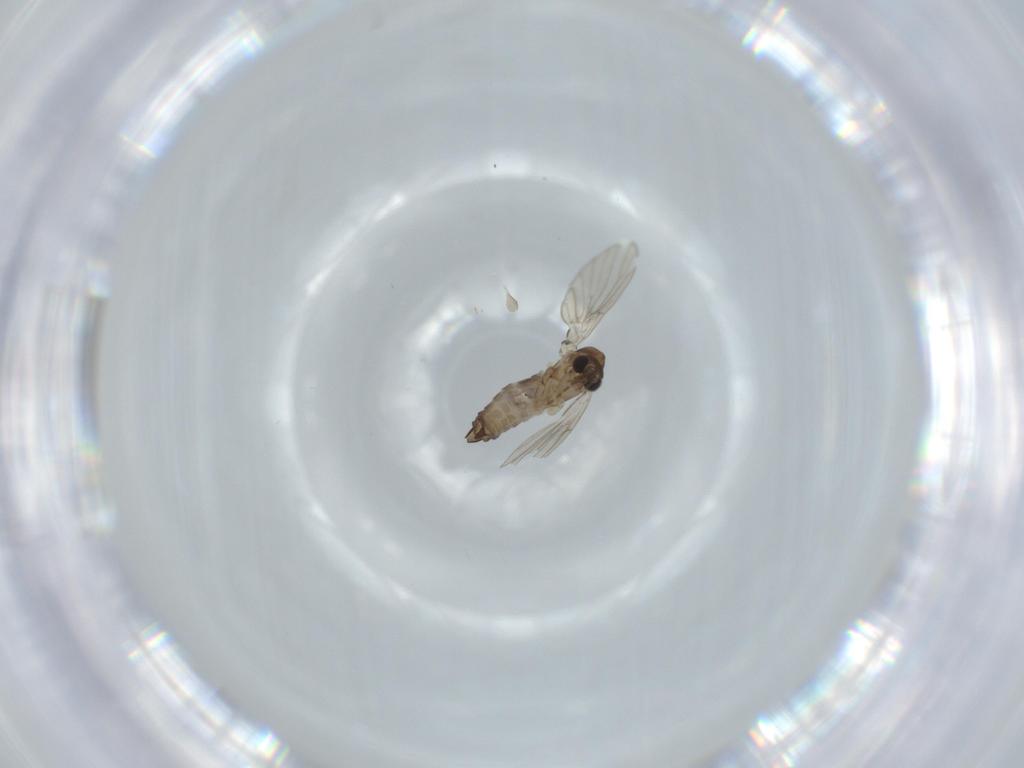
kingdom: Animalia
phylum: Arthropoda
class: Insecta
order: Diptera
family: Cecidomyiidae
